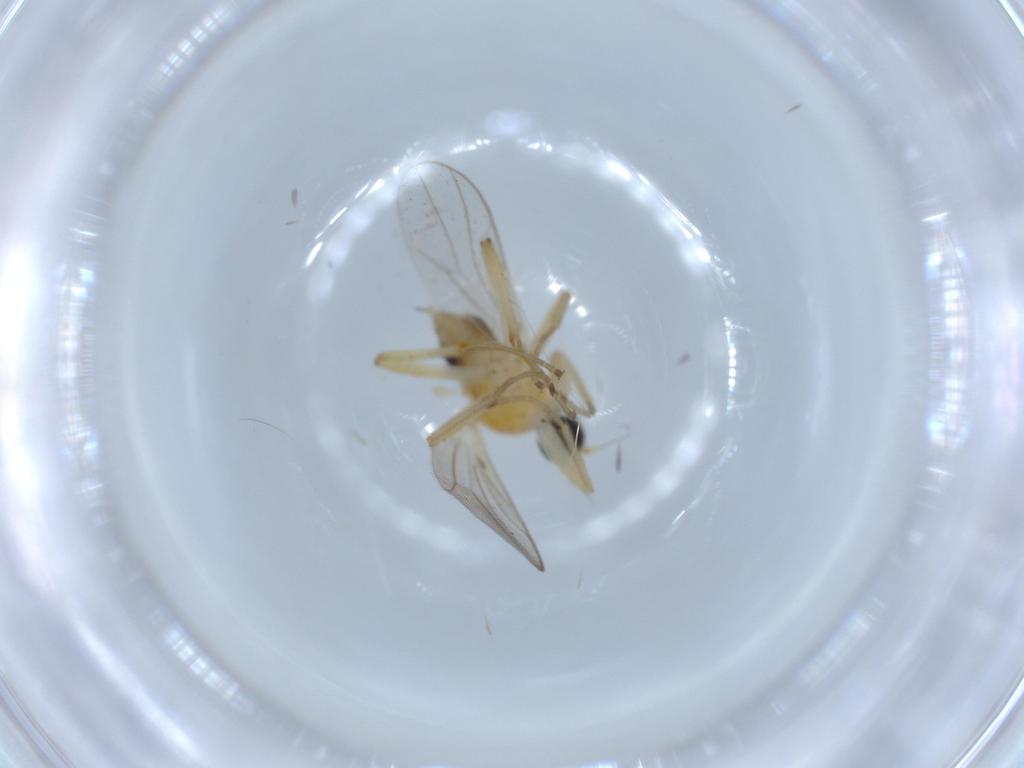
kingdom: Animalia
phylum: Arthropoda
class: Insecta
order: Diptera
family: Hybotidae
